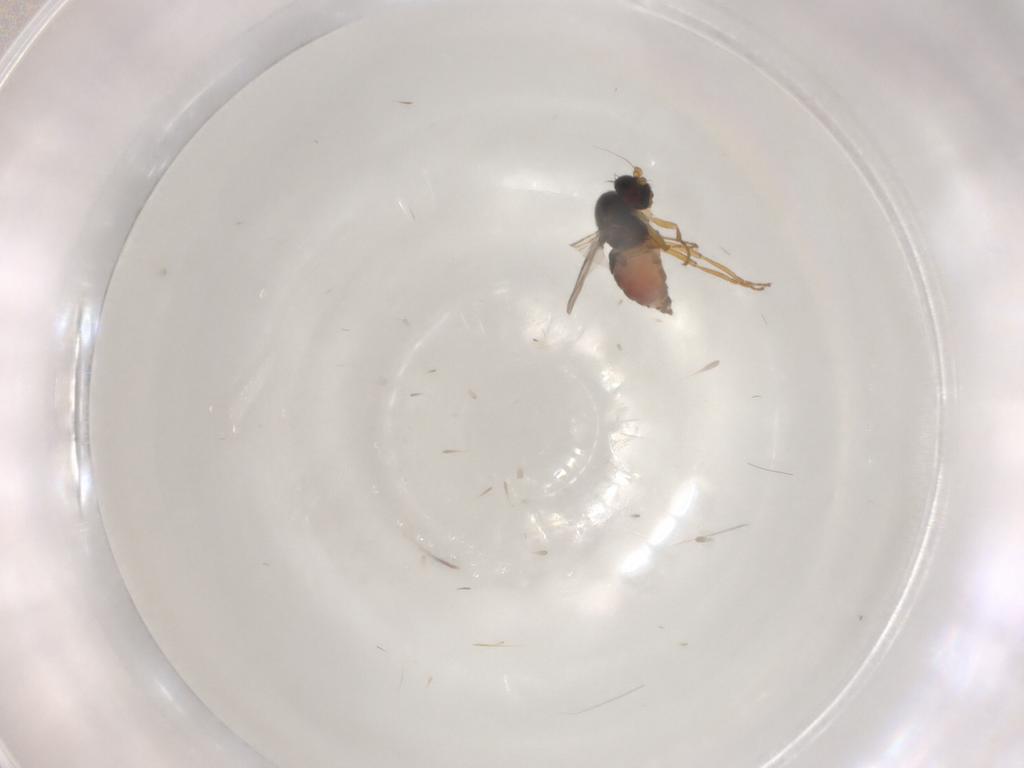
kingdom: Animalia
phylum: Arthropoda
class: Insecta
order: Diptera
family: Sphaeroceridae
